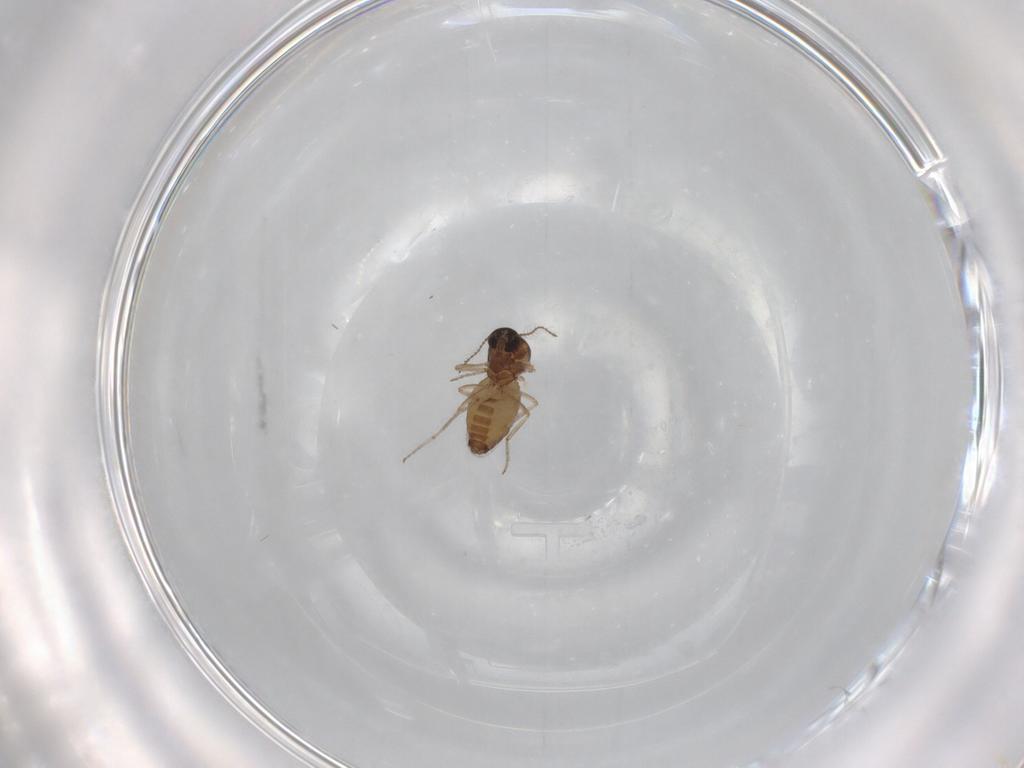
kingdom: Animalia
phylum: Arthropoda
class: Insecta
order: Diptera
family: Ceratopogonidae
